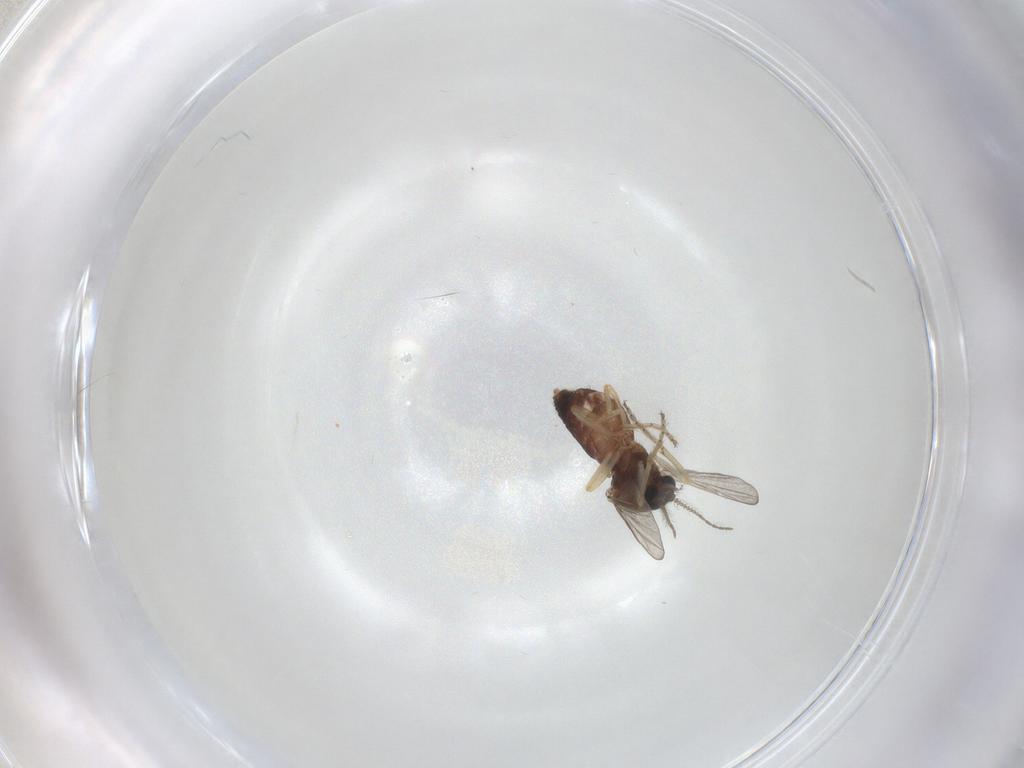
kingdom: Animalia
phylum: Arthropoda
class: Insecta
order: Diptera
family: Ceratopogonidae
